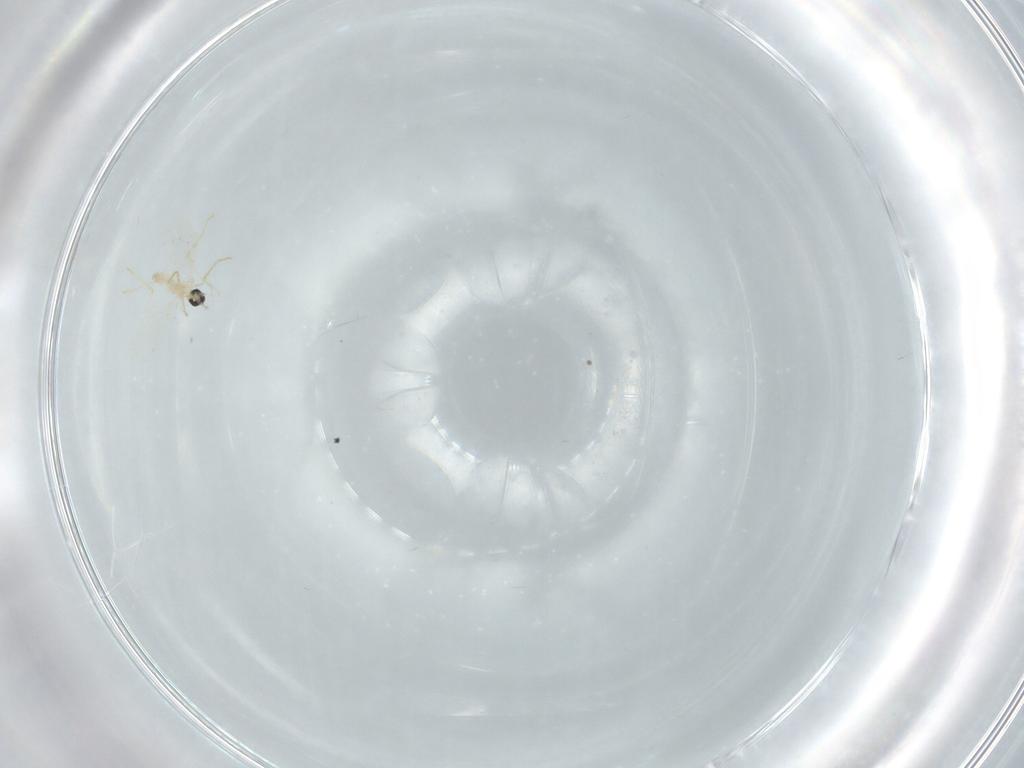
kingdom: Animalia
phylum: Arthropoda
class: Insecta
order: Diptera
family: Cecidomyiidae
